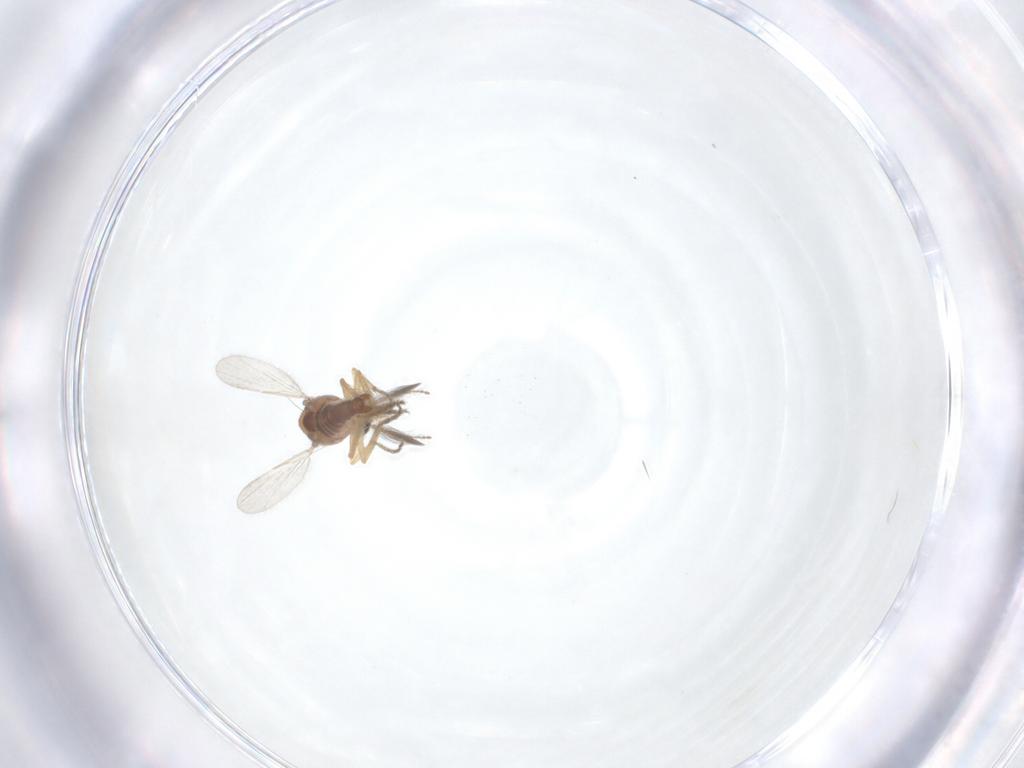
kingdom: Animalia
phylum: Arthropoda
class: Insecta
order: Diptera
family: Ceratopogonidae
